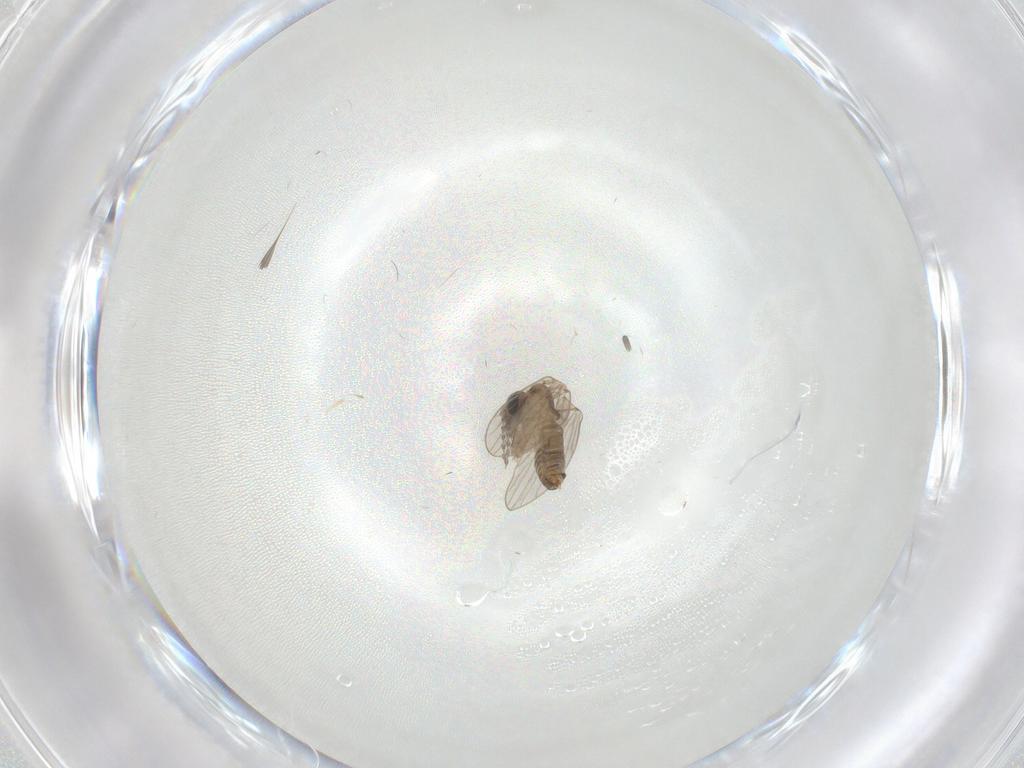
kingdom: Animalia
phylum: Arthropoda
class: Insecta
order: Diptera
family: Cecidomyiidae
